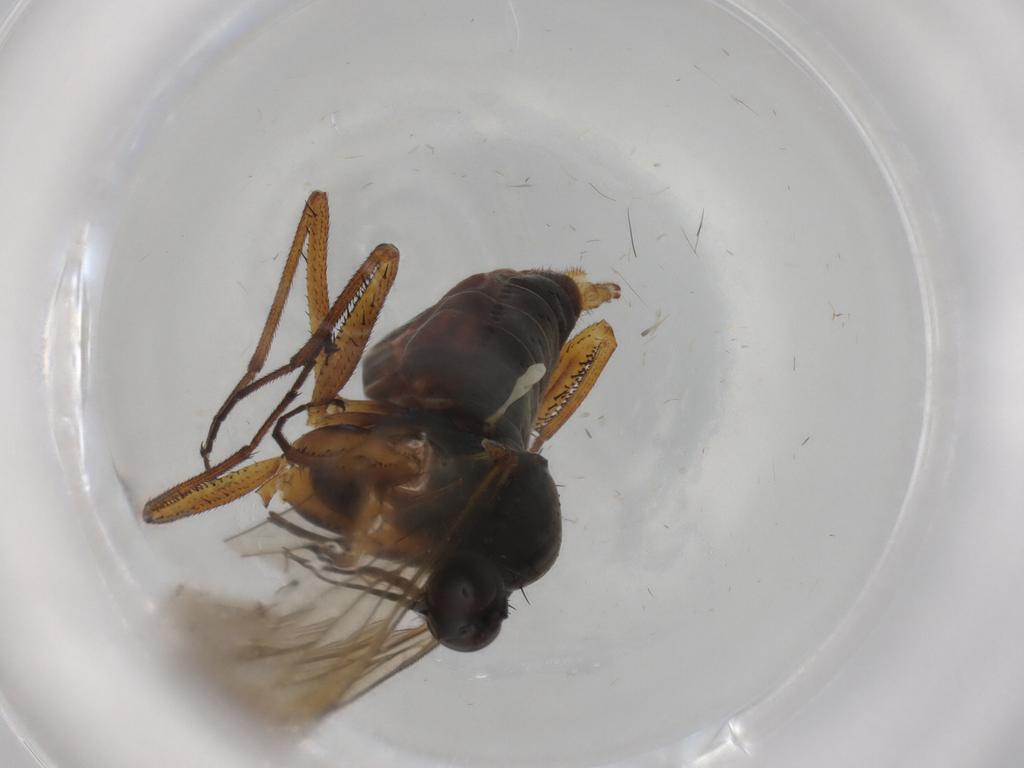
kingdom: Animalia
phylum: Arthropoda
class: Insecta
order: Diptera
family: Empididae
